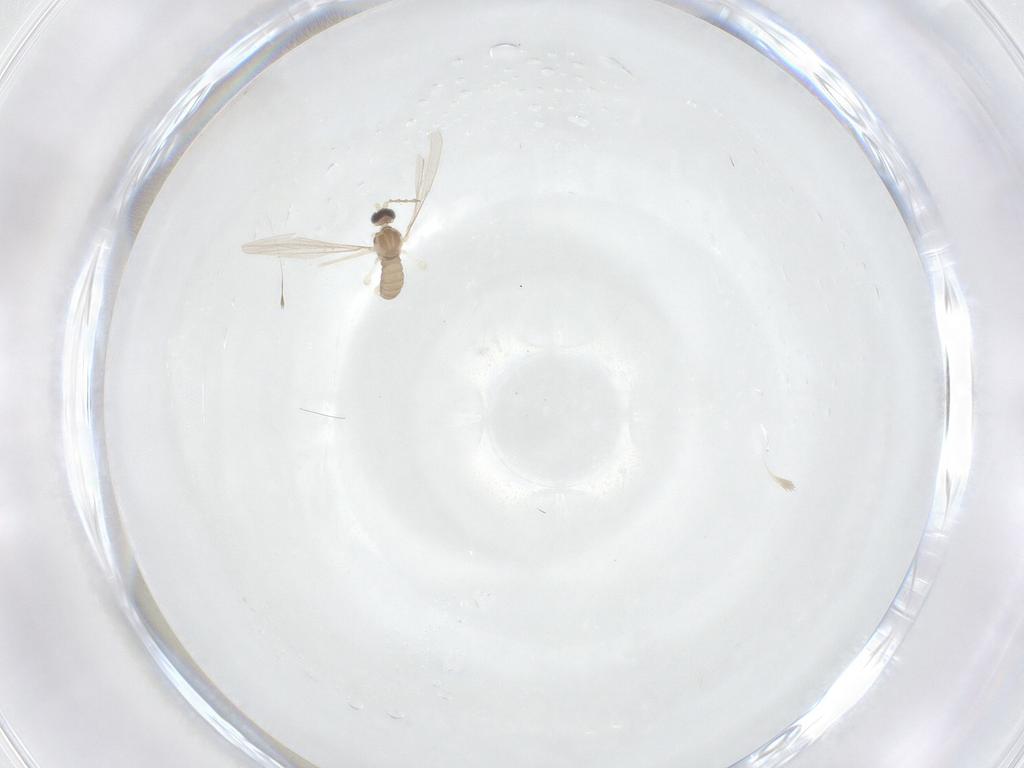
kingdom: Animalia
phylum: Arthropoda
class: Insecta
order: Diptera
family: Cecidomyiidae
